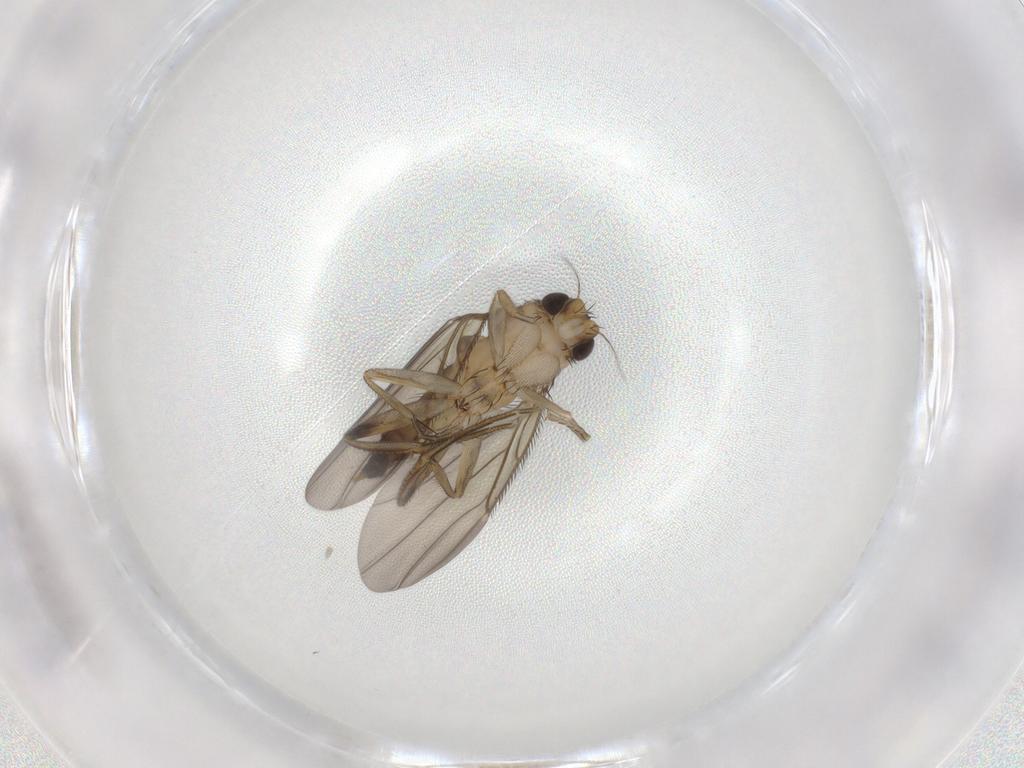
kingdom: Animalia
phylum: Arthropoda
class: Insecta
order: Diptera
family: Phoridae
